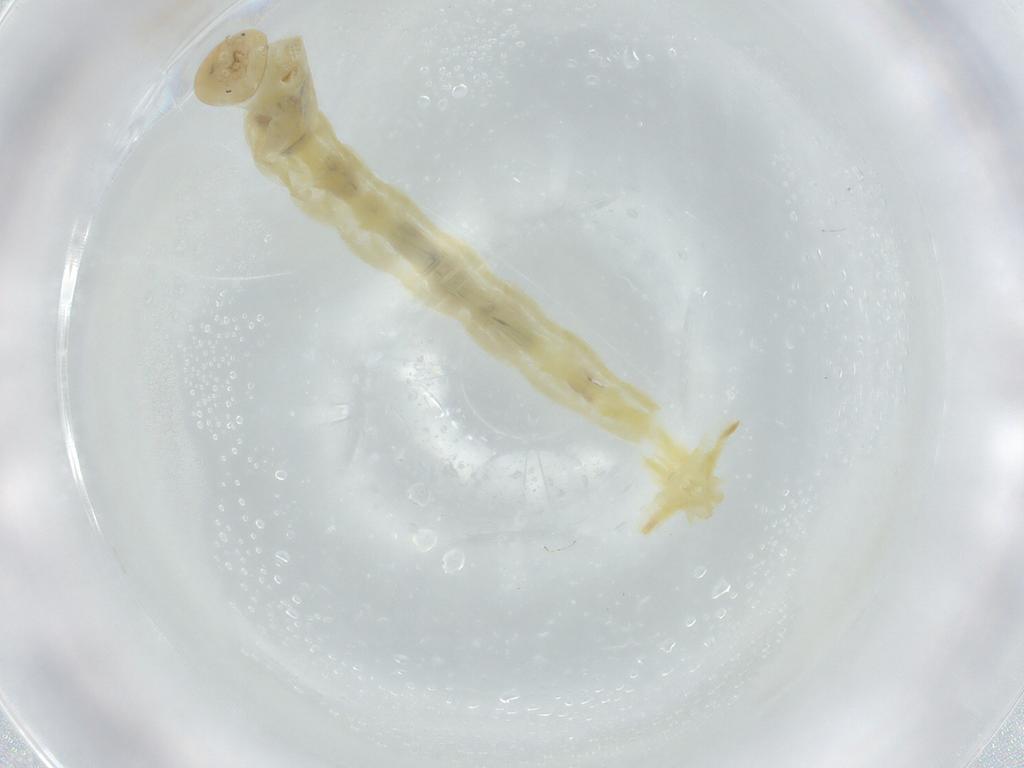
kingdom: Animalia
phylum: Arthropoda
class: Insecta
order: Diptera
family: Chironomidae
